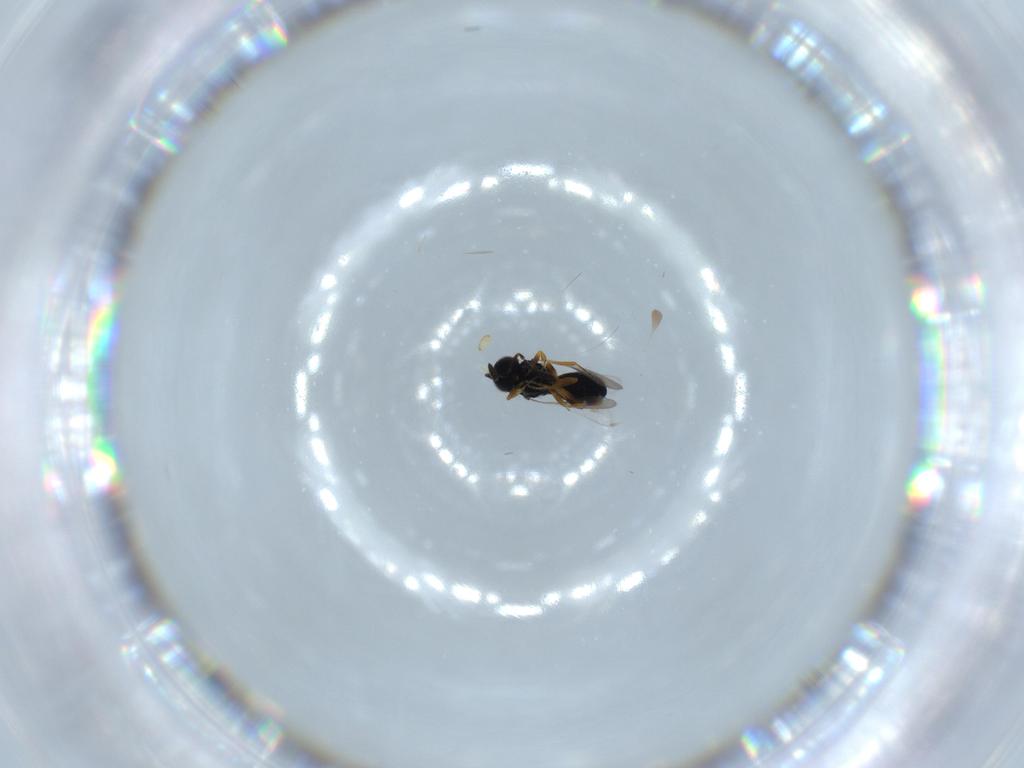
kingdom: Animalia
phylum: Arthropoda
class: Insecta
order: Hymenoptera
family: Scelionidae
